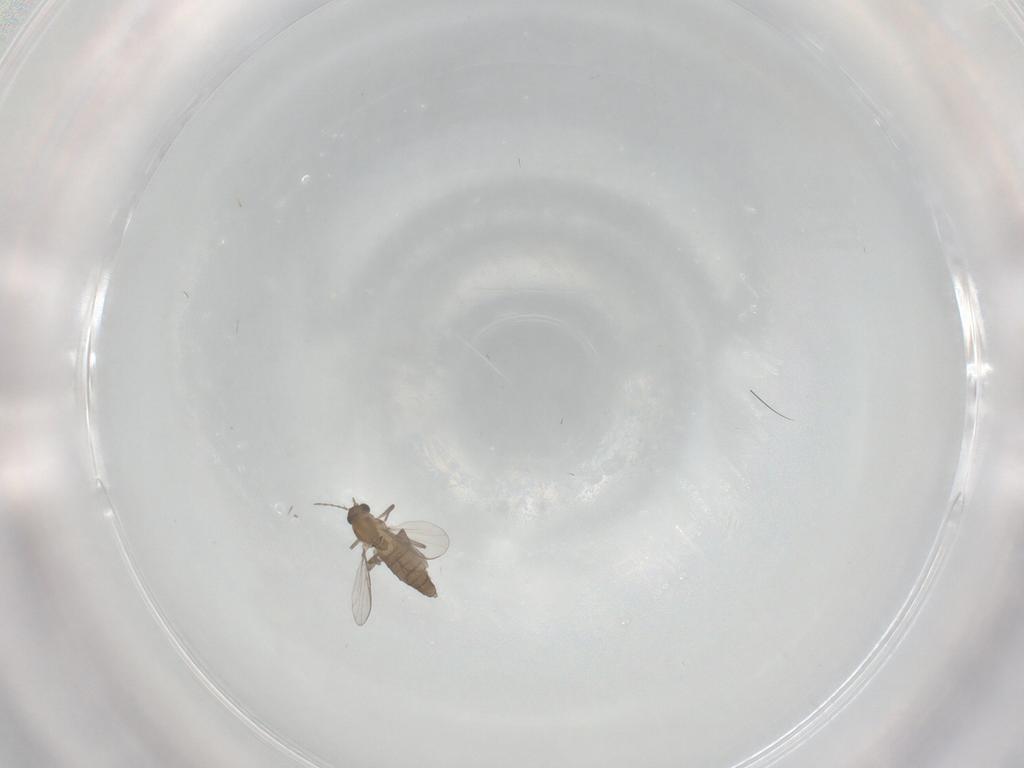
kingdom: Animalia
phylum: Arthropoda
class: Insecta
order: Diptera
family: Chironomidae
